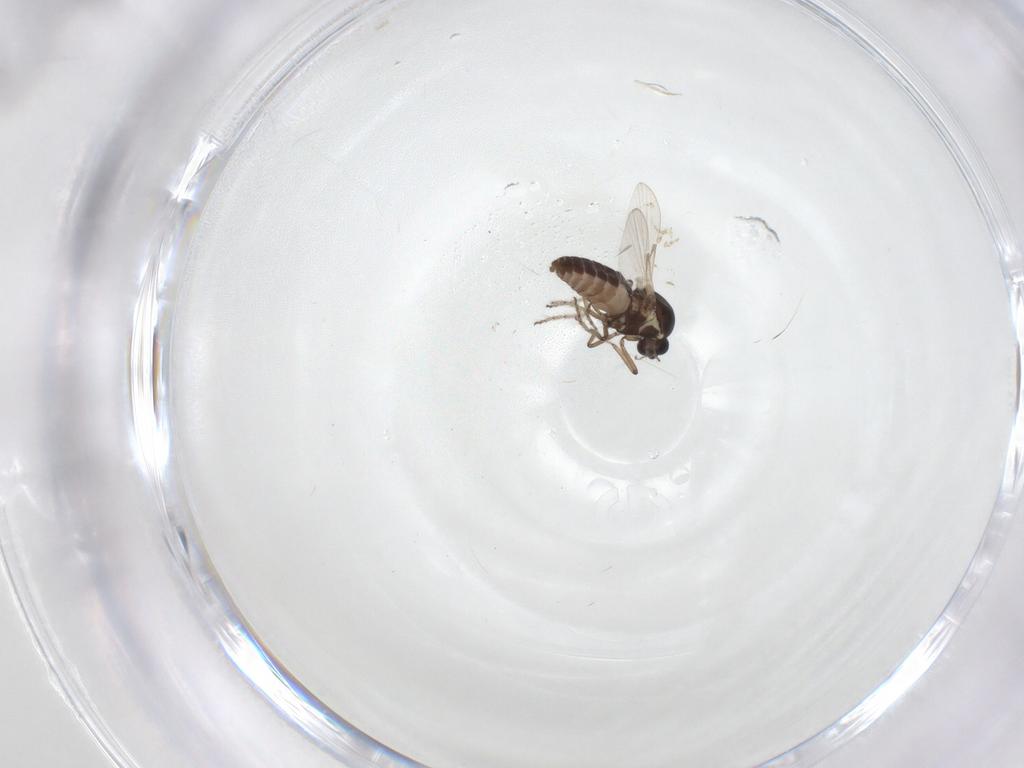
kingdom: Animalia
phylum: Arthropoda
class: Insecta
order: Diptera
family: Ceratopogonidae
